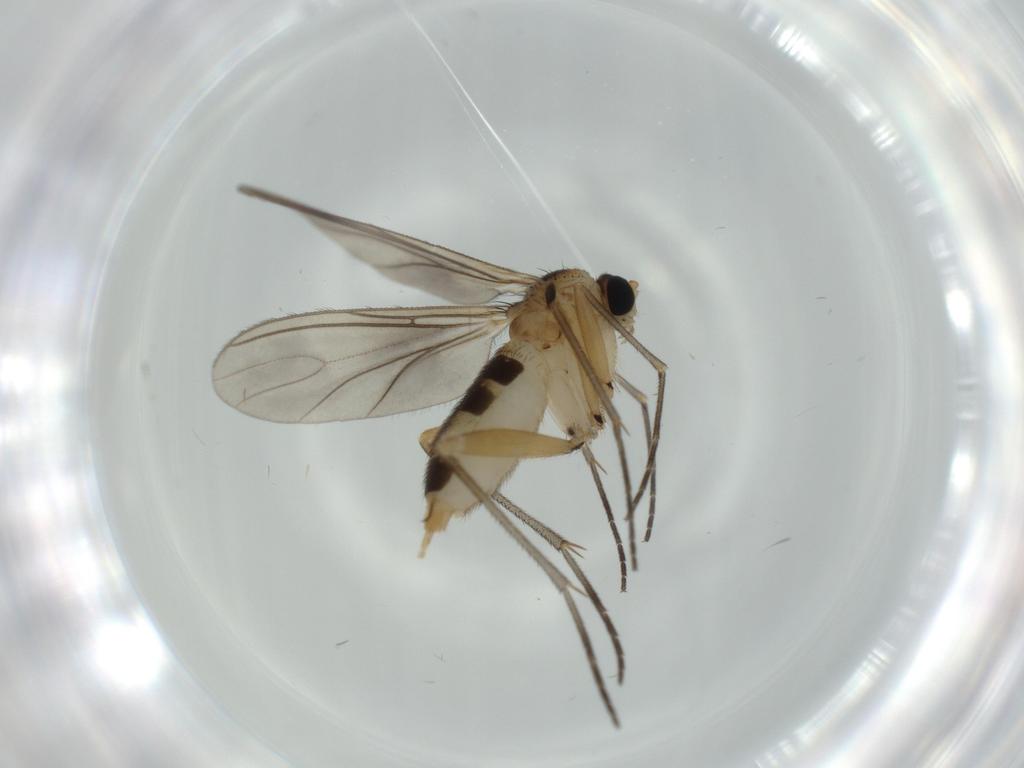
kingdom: Animalia
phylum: Arthropoda
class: Insecta
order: Diptera
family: Sciaridae
